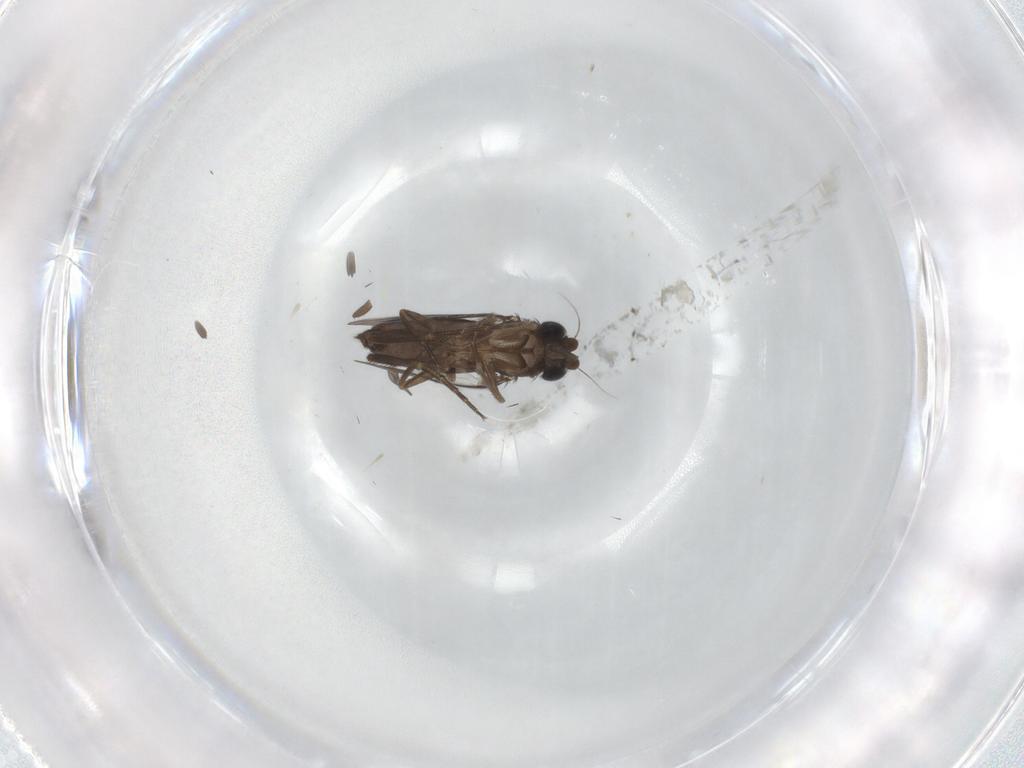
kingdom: Animalia
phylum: Arthropoda
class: Insecta
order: Diptera
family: Phoridae
